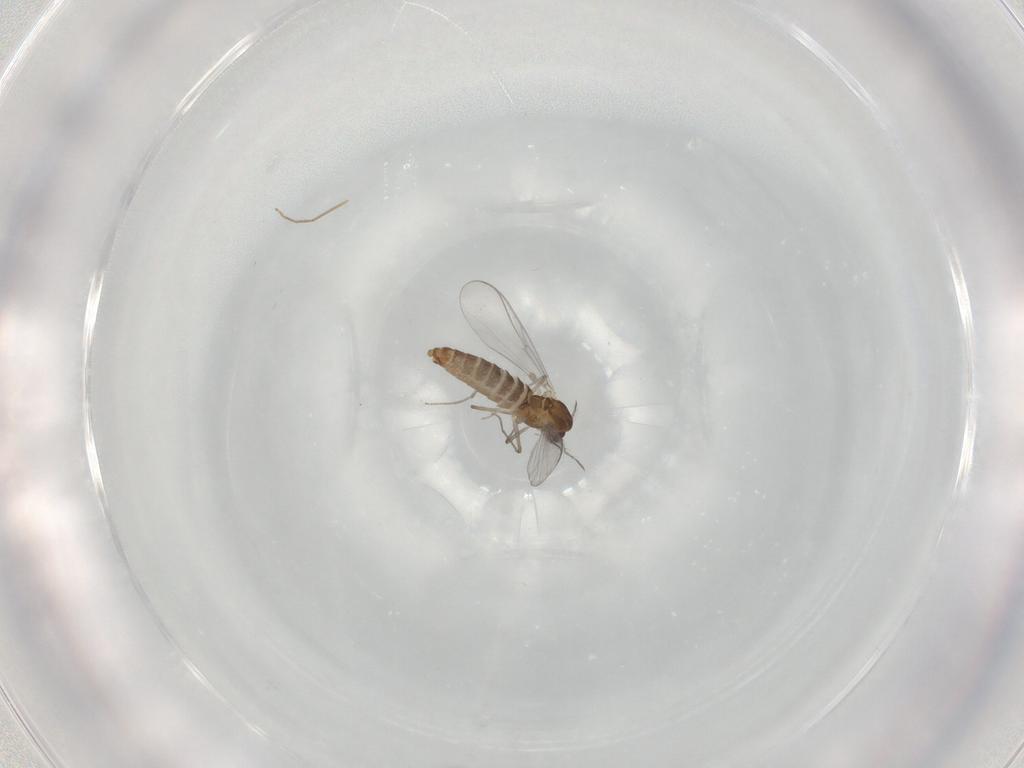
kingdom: Animalia
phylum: Arthropoda
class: Insecta
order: Diptera
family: Chironomidae
